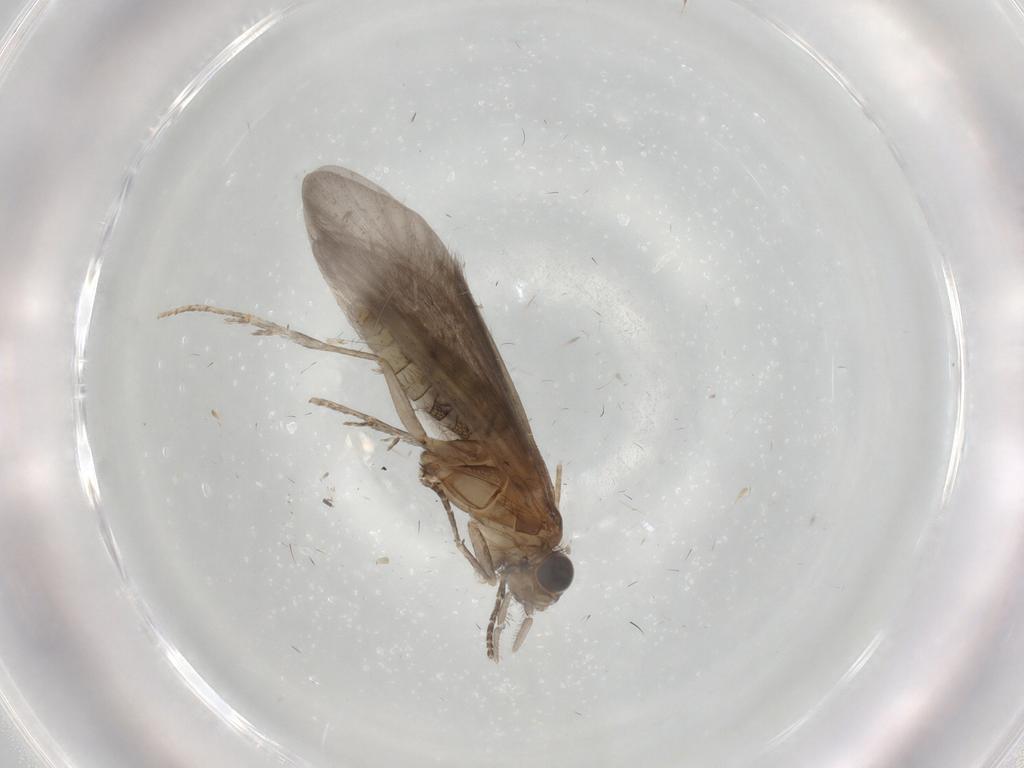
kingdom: Animalia
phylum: Arthropoda
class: Insecta
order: Trichoptera
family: Helicopsychidae
